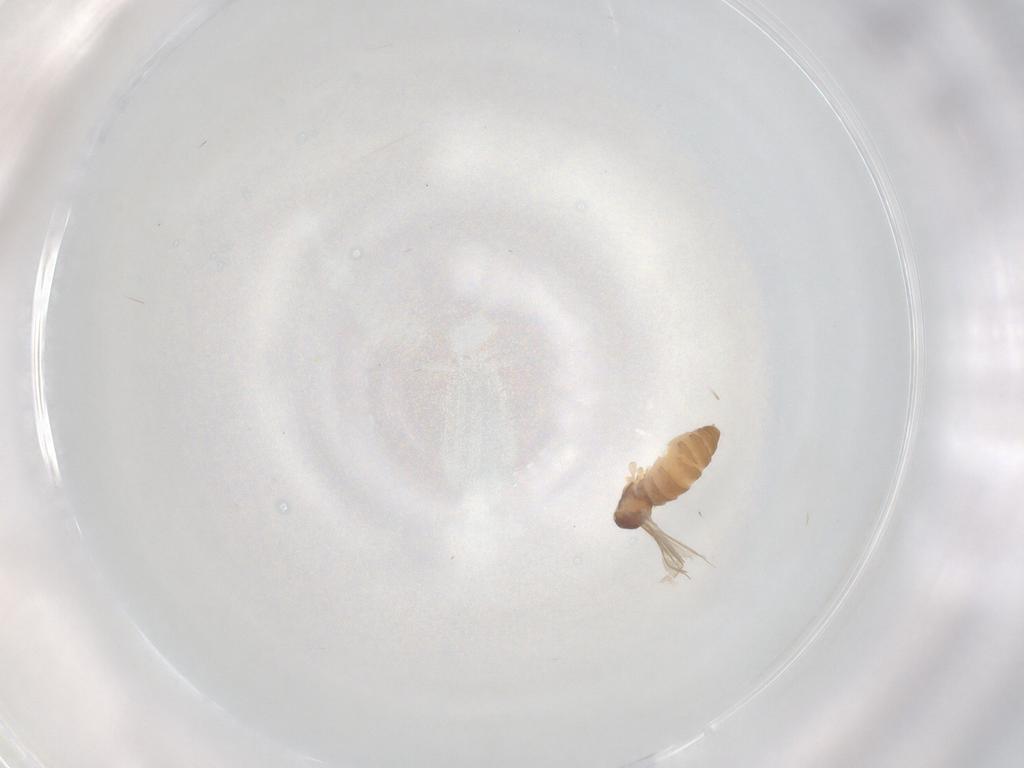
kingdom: Animalia
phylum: Arthropoda
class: Insecta
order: Diptera
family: Cecidomyiidae
